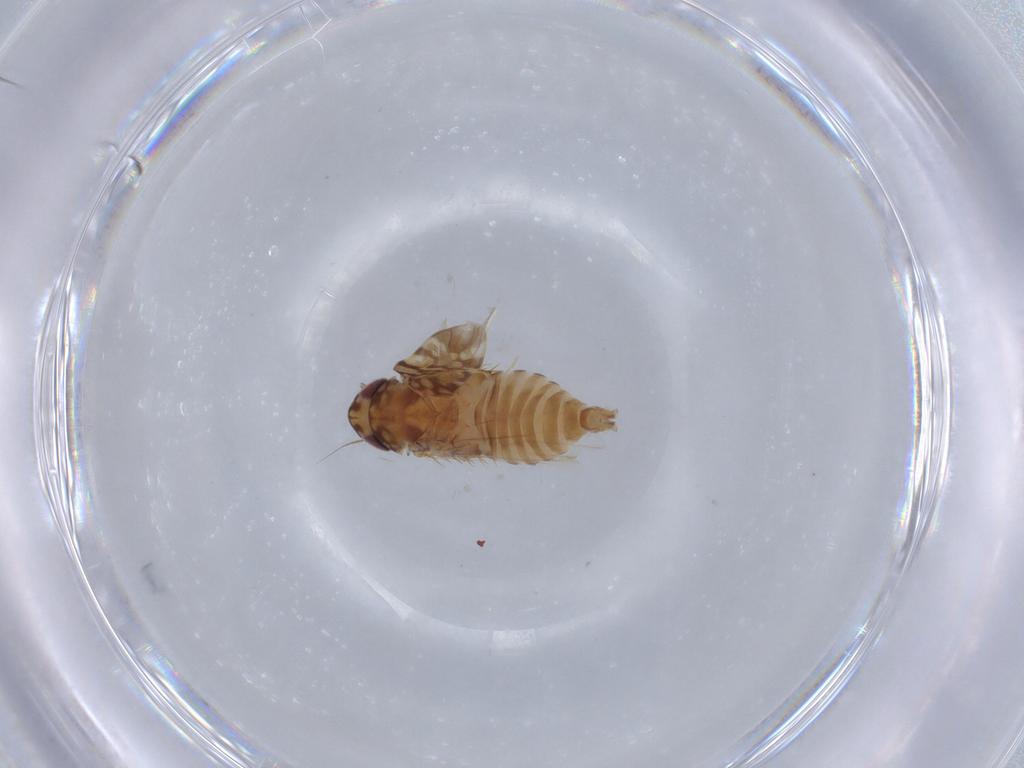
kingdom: Animalia
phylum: Arthropoda
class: Insecta
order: Hemiptera
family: Cicadellidae
